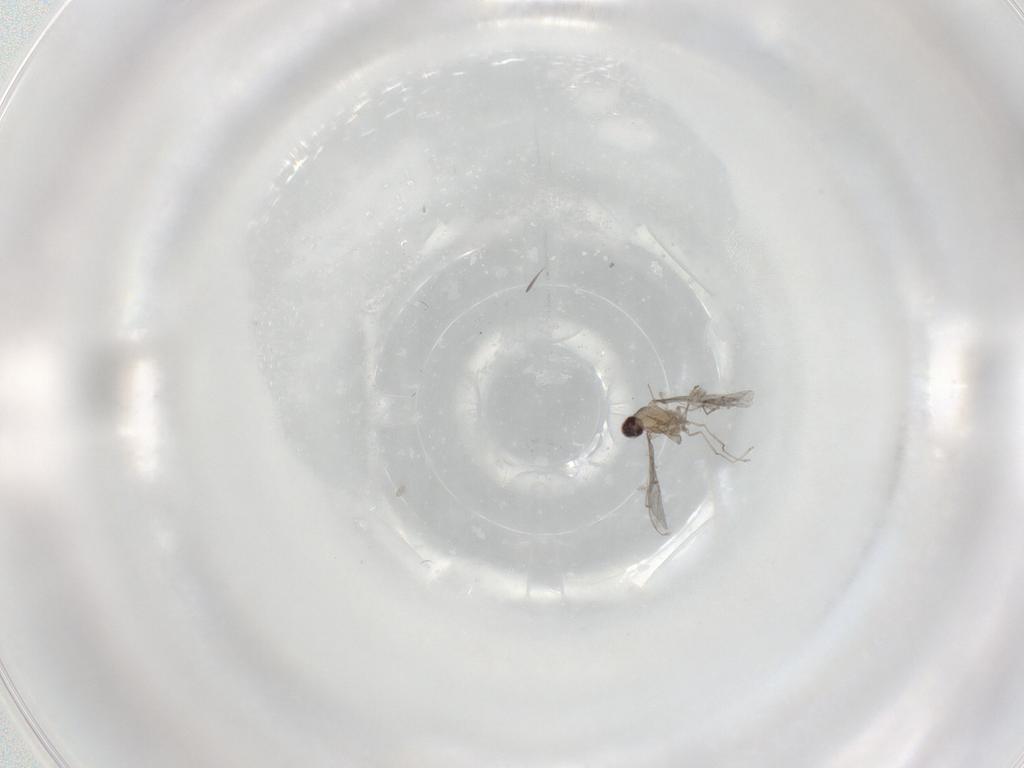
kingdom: Animalia
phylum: Arthropoda
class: Insecta
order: Diptera
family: Sciaridae
